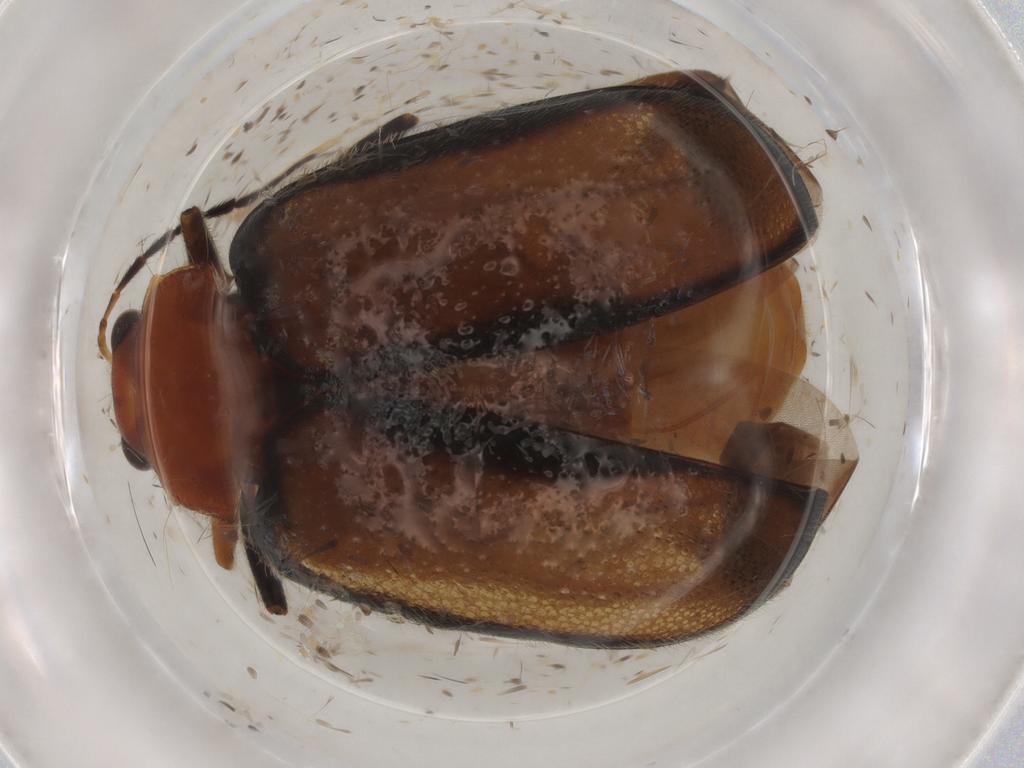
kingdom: Animalia
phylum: Arthropoda
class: Insecta
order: Coleoptera
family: Chrysomelidae
